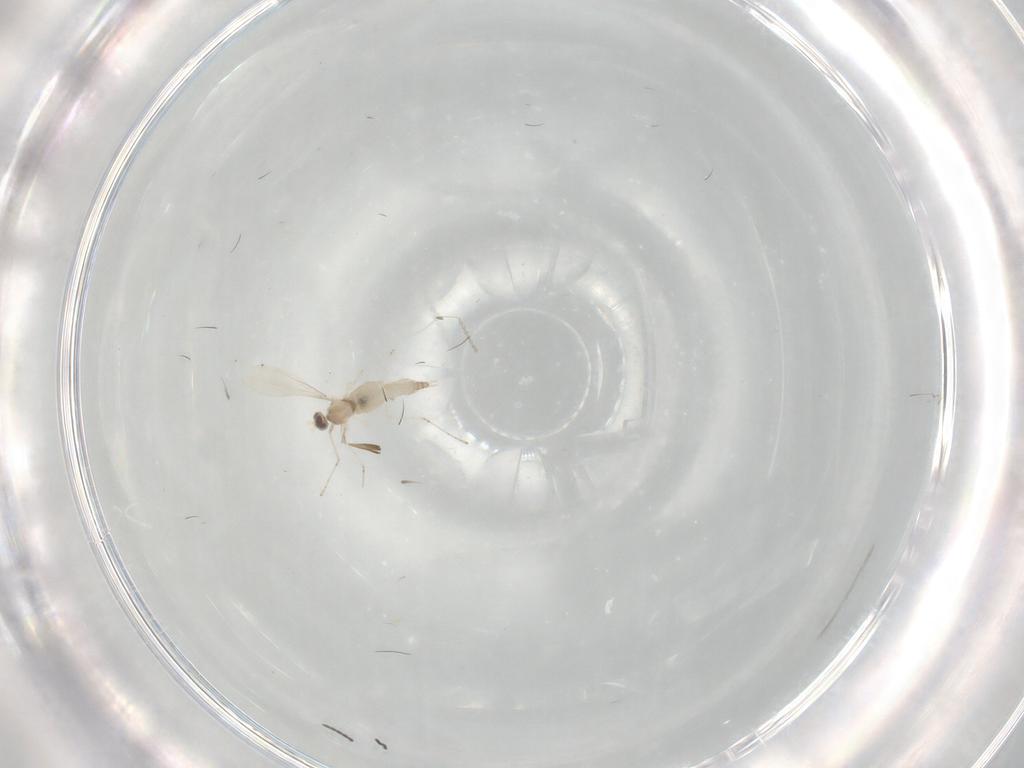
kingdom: Animalia
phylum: Arthropoda
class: Insecta
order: Diptera
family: Cecidomyiidae
